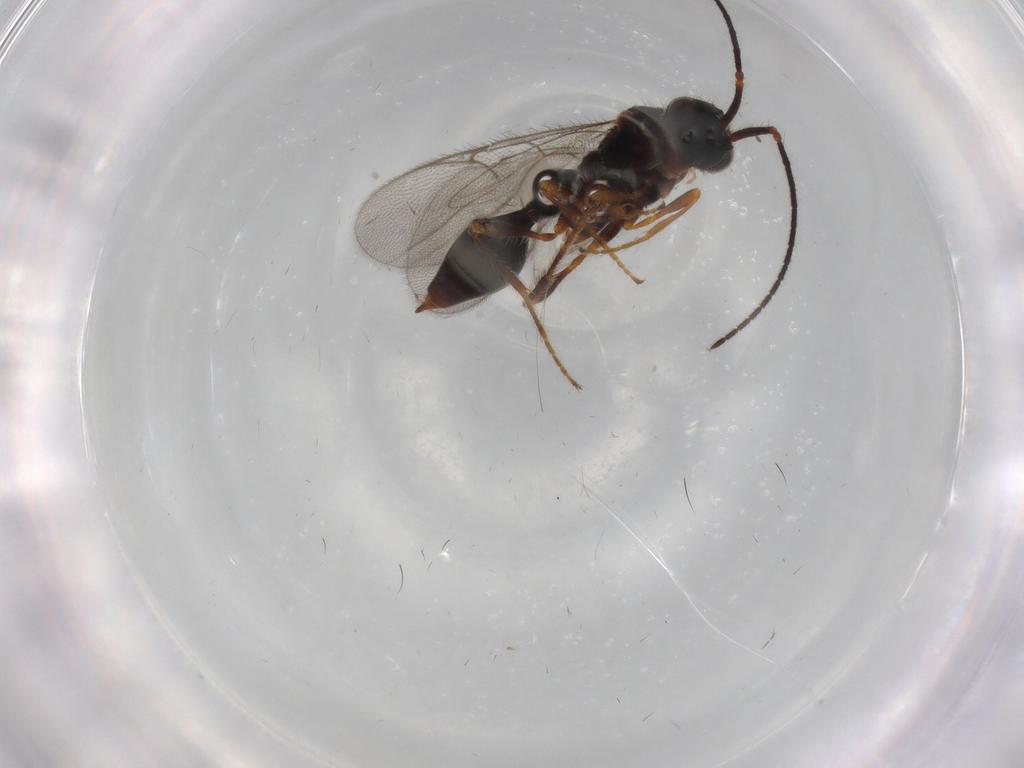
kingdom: Animalia
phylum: Arthropoda
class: Insecta
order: Hymenoptera
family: Diapriidae
